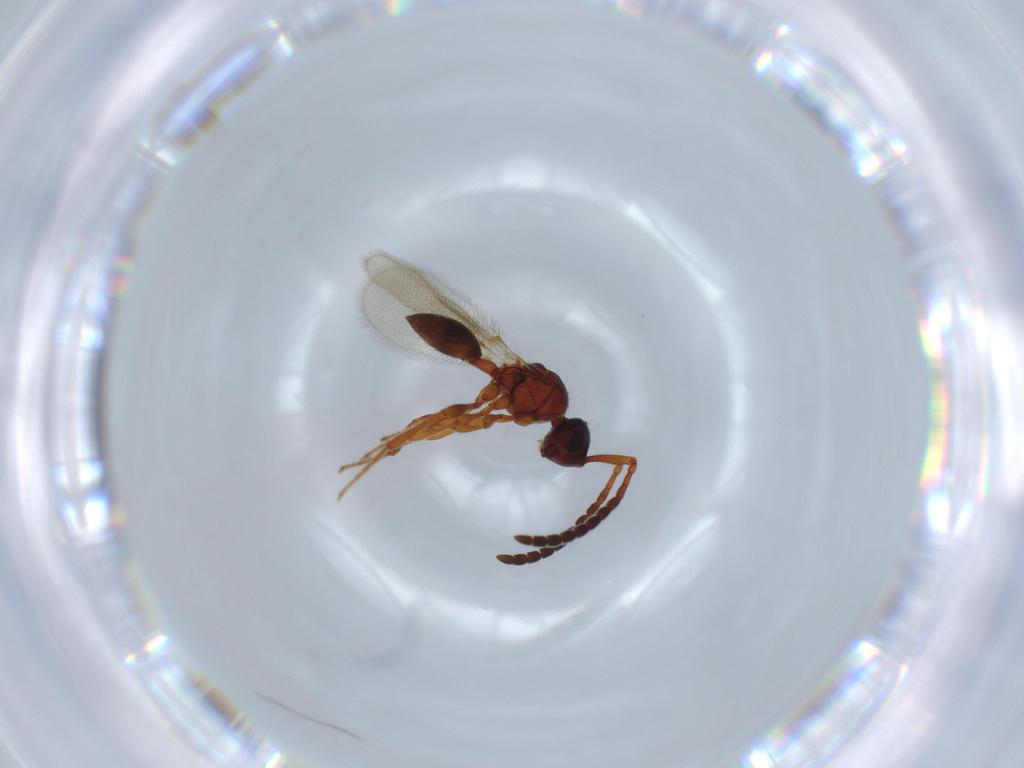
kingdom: Animalia
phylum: Arthropoda
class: Insecta
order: Hymenoptera
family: Diapriidae
